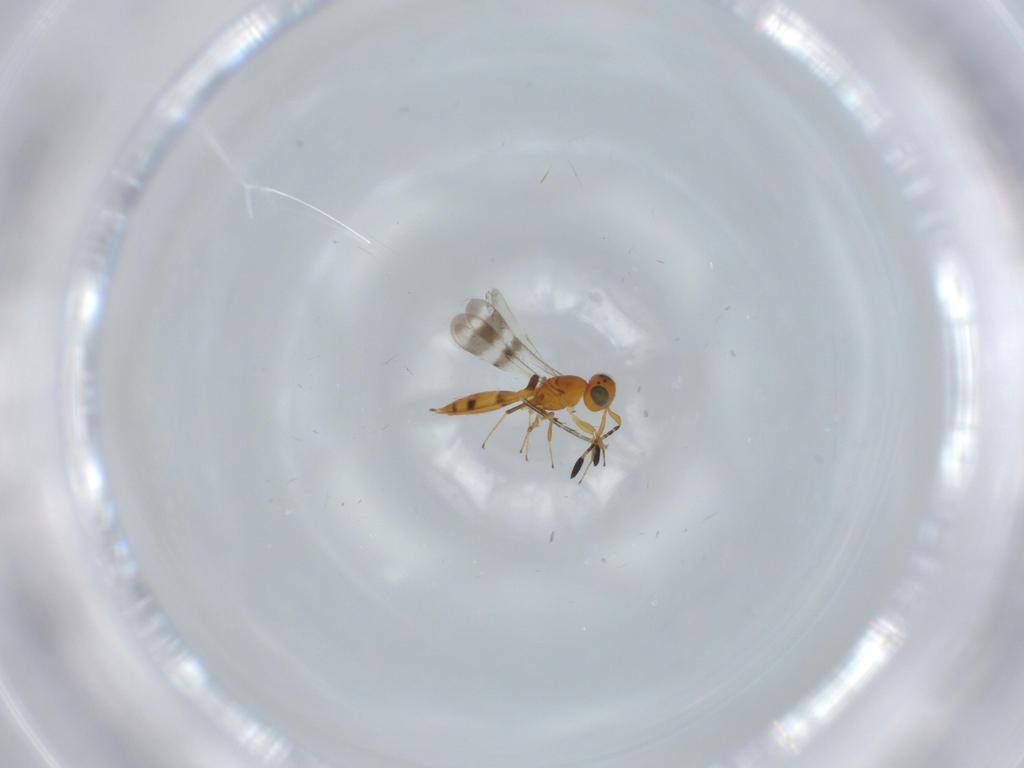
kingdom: Animalia
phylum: Arthropoda
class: Insecta
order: Hymenoptera
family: Scelionidae
